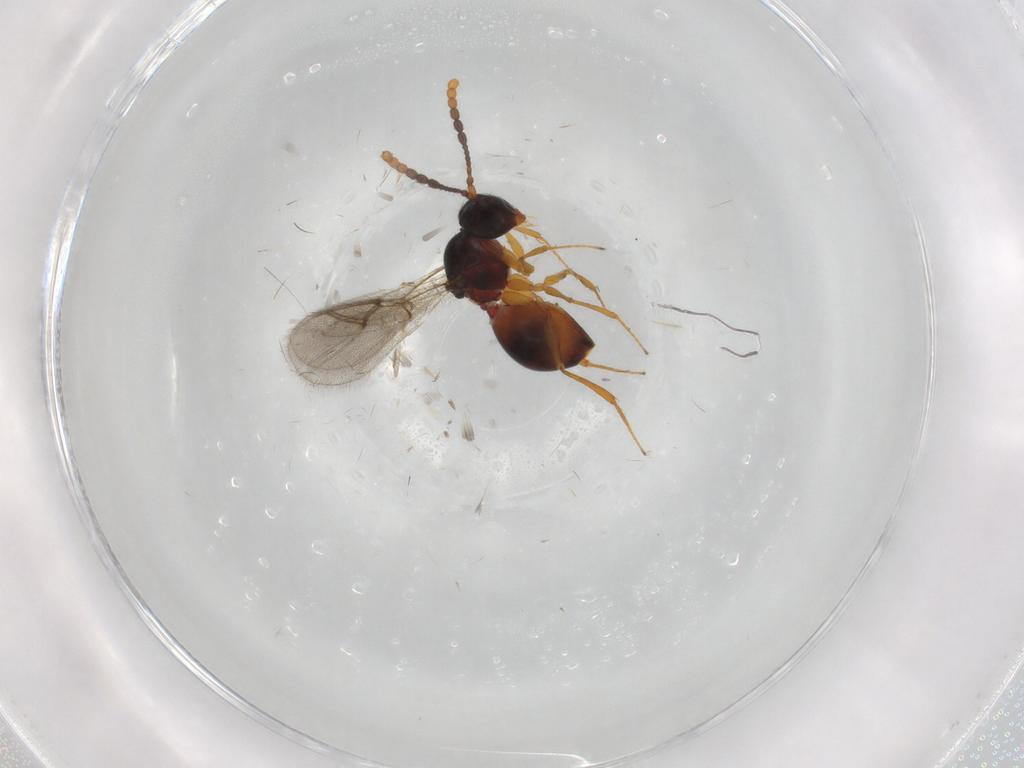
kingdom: Animalia
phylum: Arthropoda
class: Insecta
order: Hymenoptera
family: Figitidae
